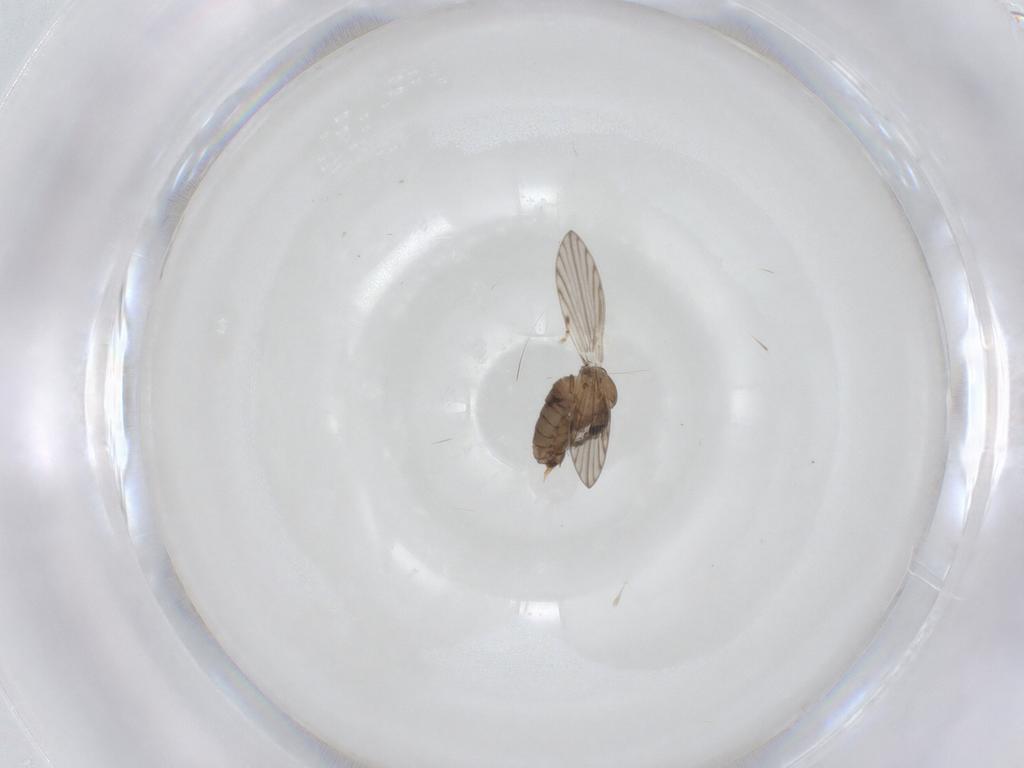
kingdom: Animalia
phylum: Arthropoda
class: Insecta
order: Diptera
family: Psychodidae
